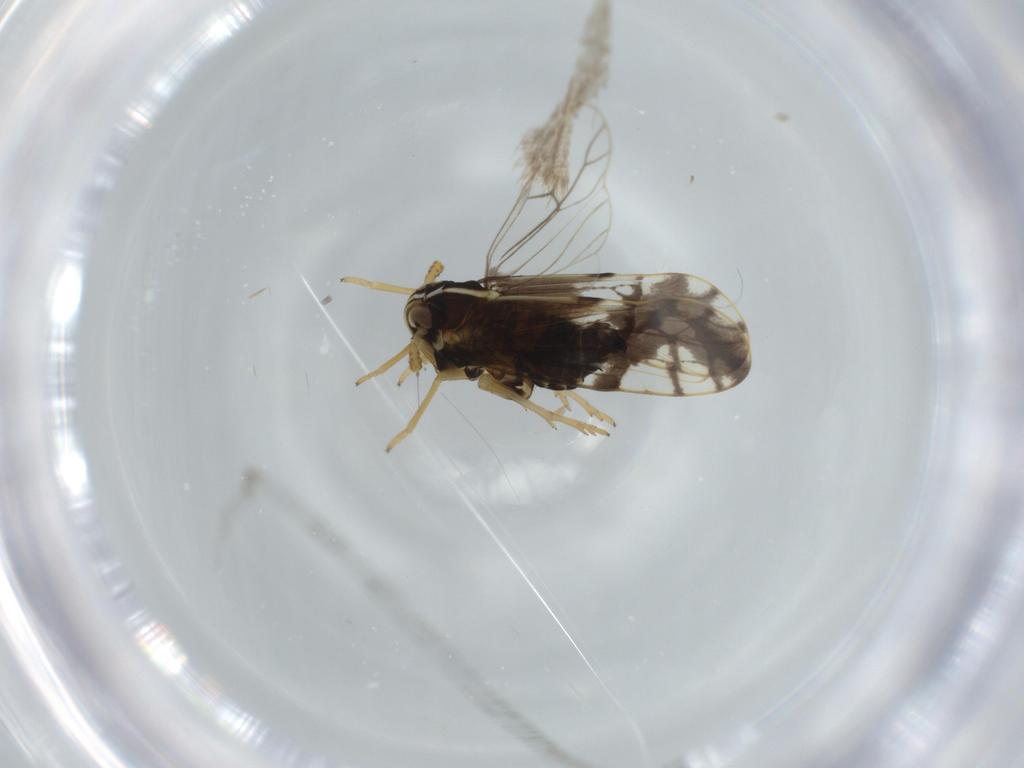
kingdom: Animalia
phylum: Arthropoda
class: Insecta
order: Hemiptera
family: Delphacidae
